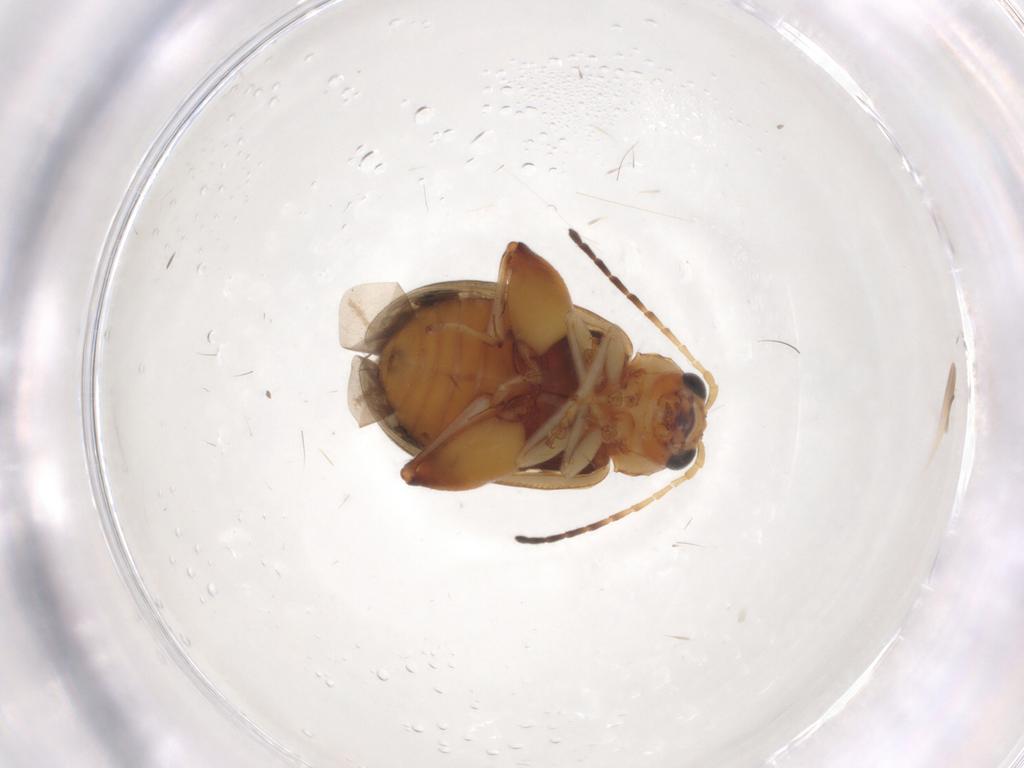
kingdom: Animalia
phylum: Arthropoda
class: Insecta
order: Coleoptera
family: Chrysomelidae
